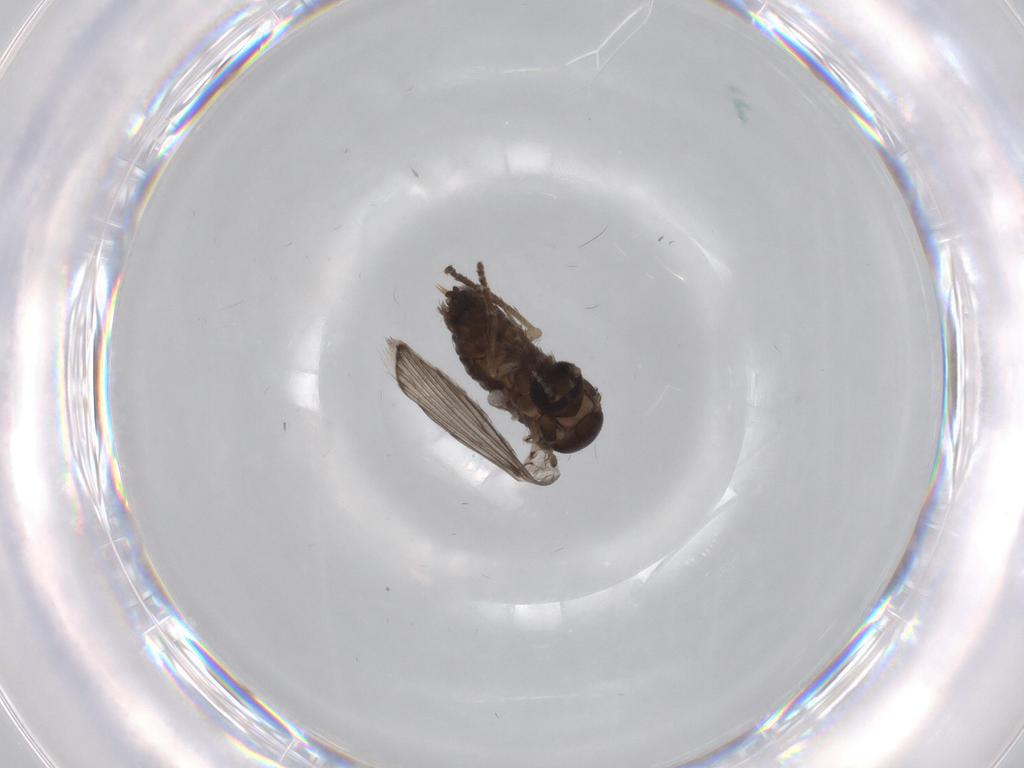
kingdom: Animalia
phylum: Arthropoda
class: Insecta
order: Diptera
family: Psychodidae
